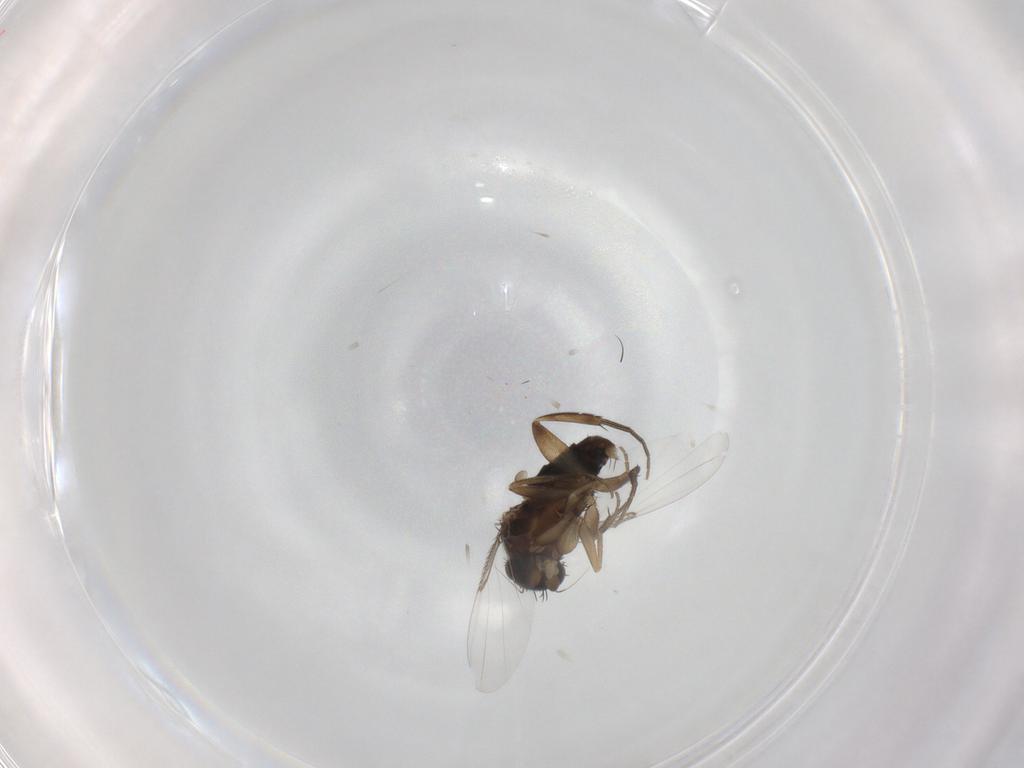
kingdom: Animalia
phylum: Arthropoda
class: Insecta
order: Diptera
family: Phoridae
